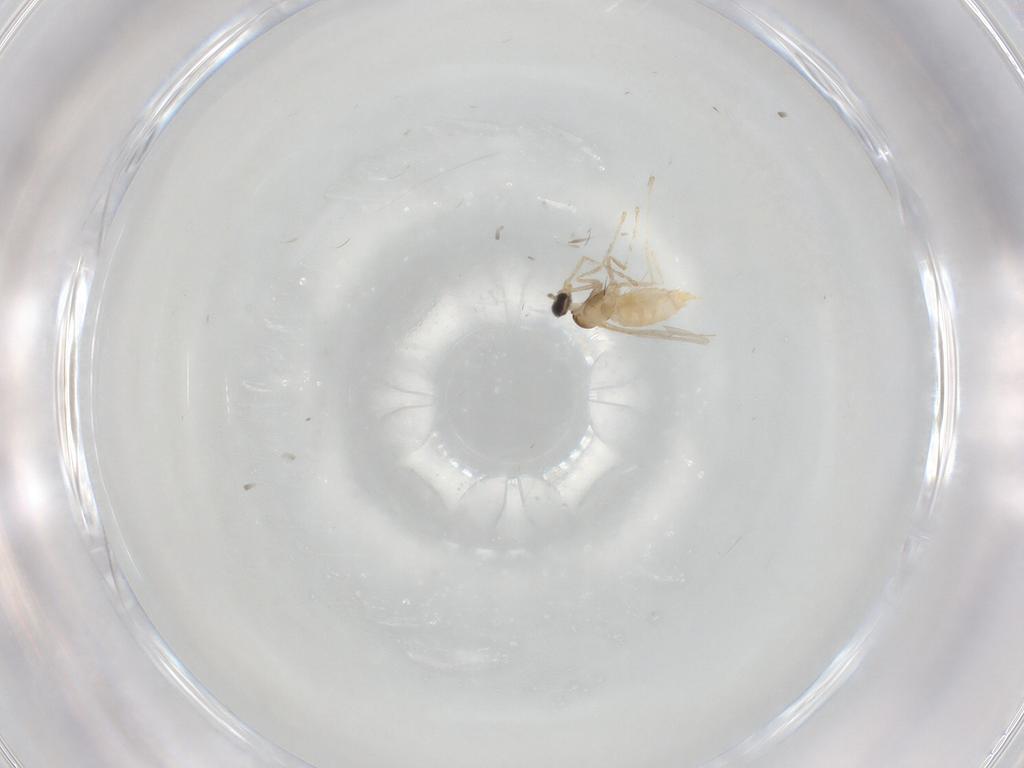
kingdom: Animalia
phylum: Arthropoda
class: Insecta
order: Diptera
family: Cecidomyiidae
